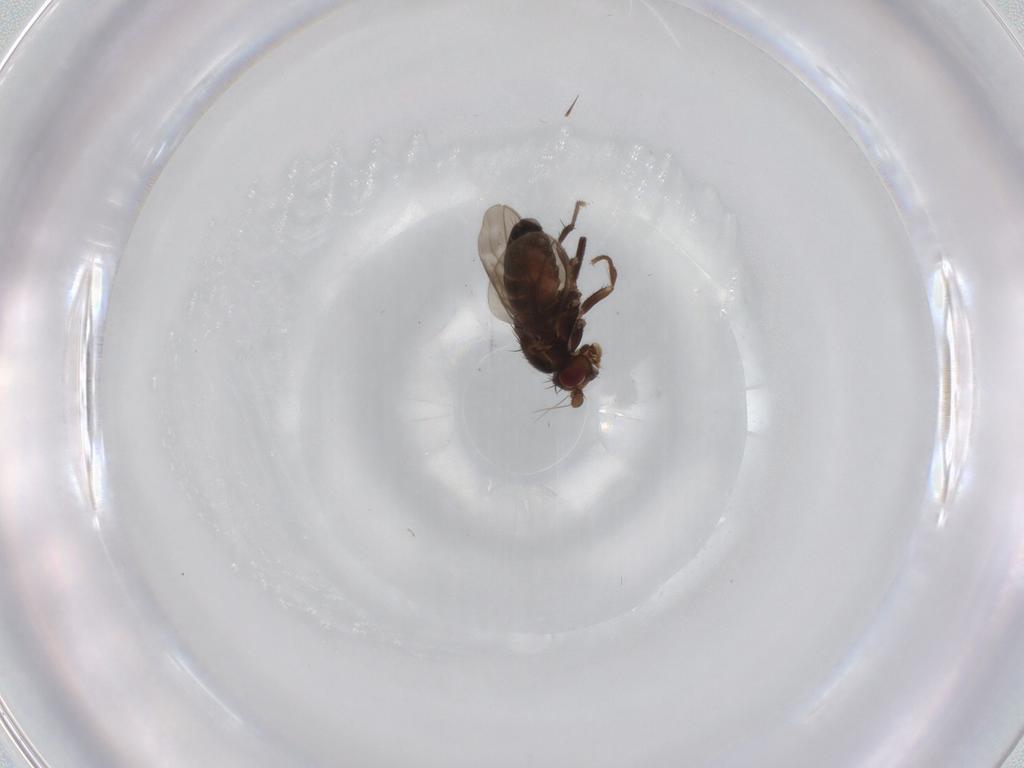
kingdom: Animalia
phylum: Arthropoda
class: Insecta
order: Diptera
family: Sphaeroceridae
